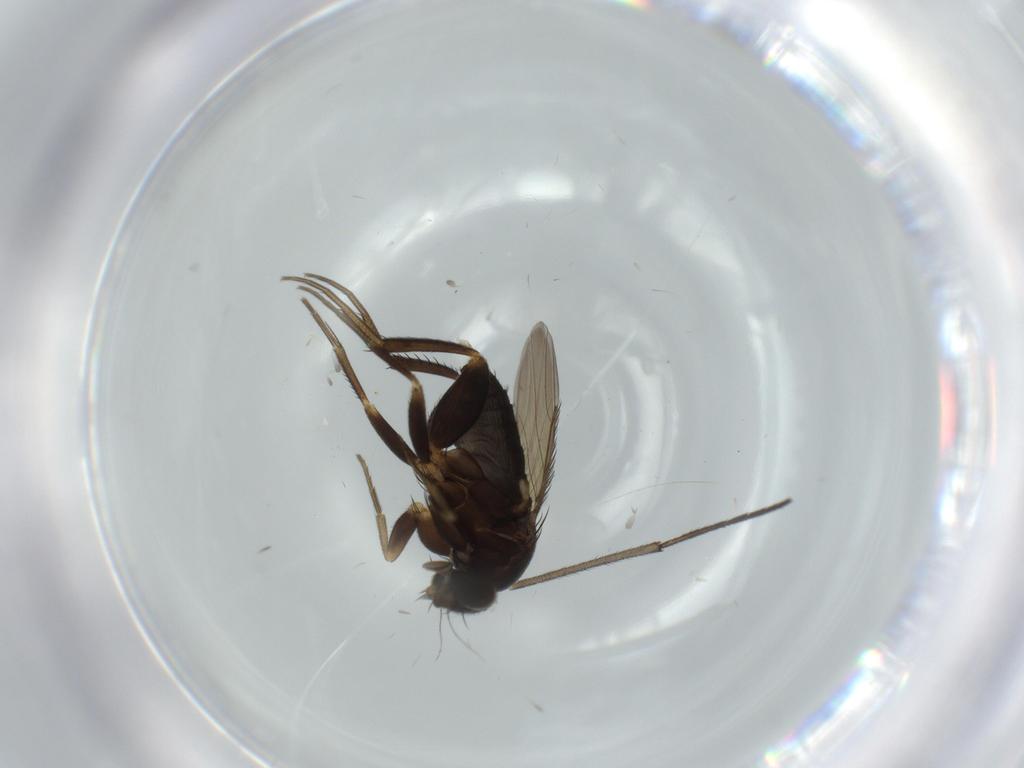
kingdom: Animalia
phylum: Arthropoda
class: Insecta
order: Diptera
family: Phoridae
